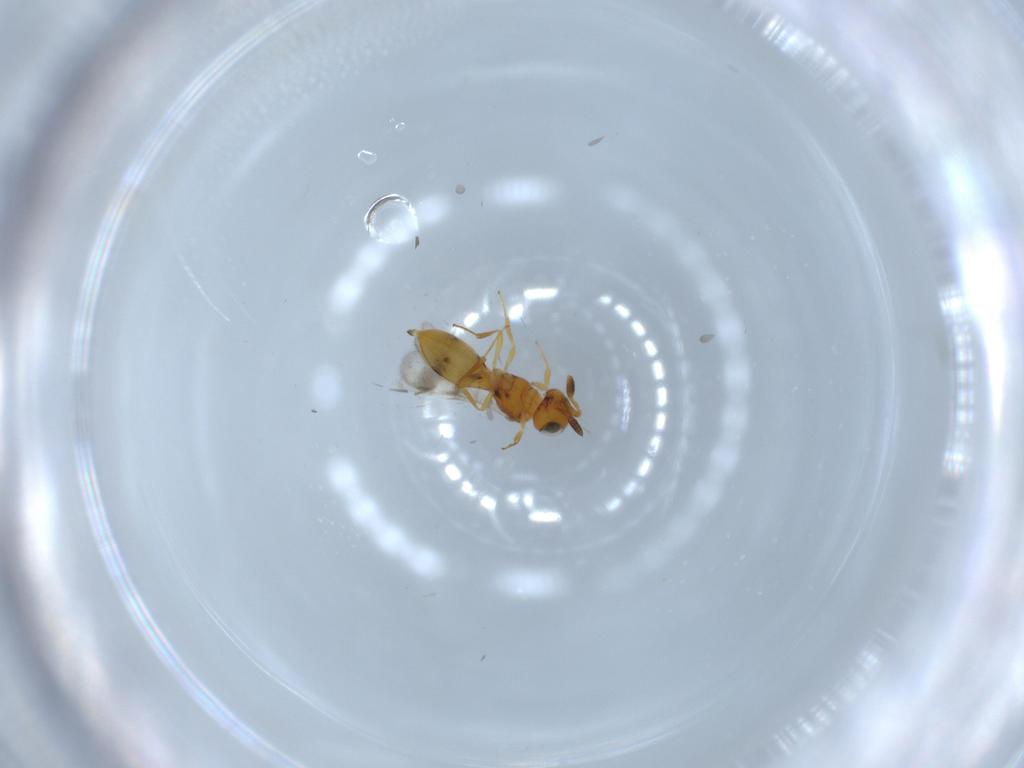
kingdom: Animalia
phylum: Arthropoda
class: Insecta
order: Hymenoptera
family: Scelionidae
